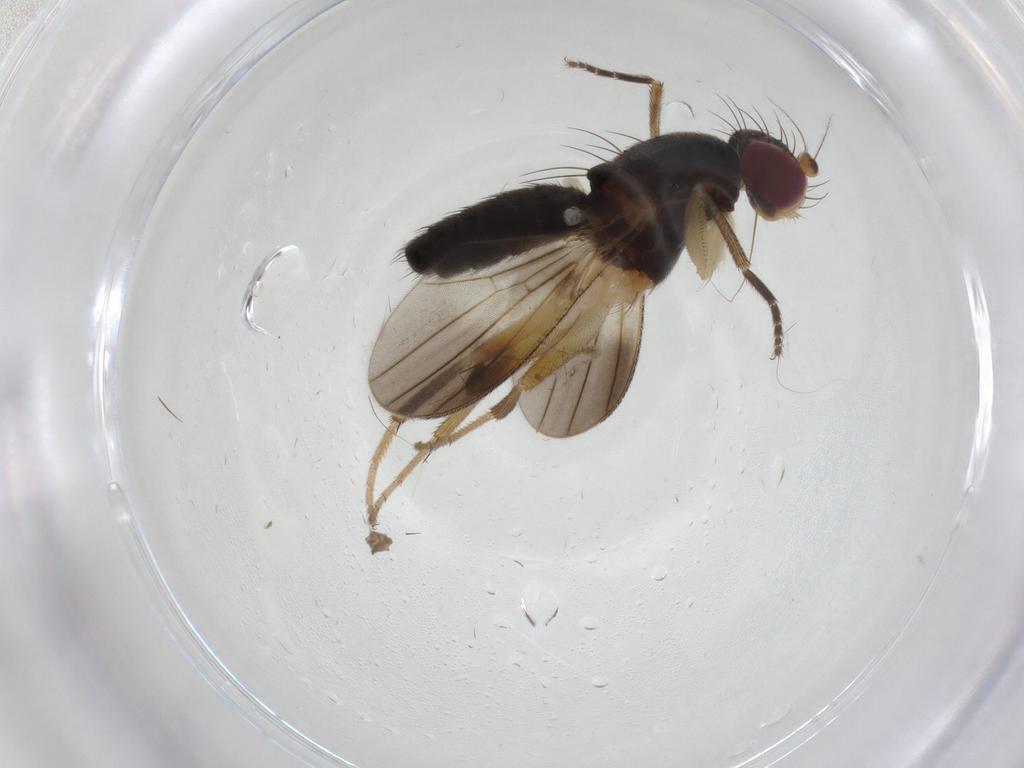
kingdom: Animalia
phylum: Arthropoda
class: Insecta
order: Diptera
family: Clusiidae
